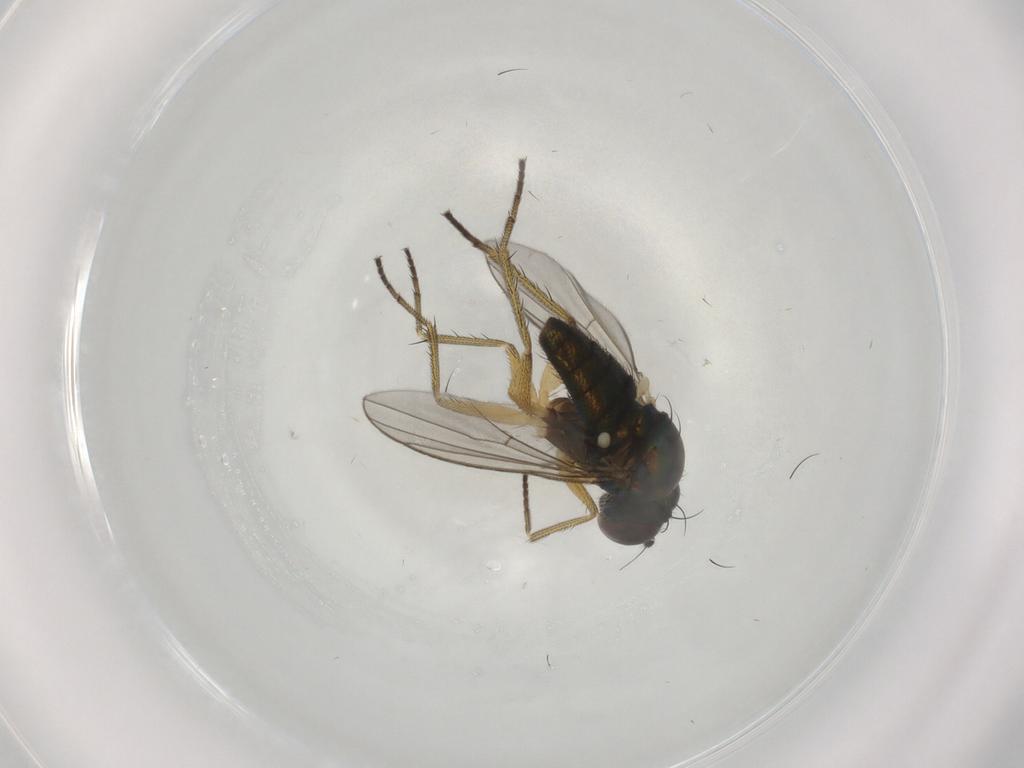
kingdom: Animalia
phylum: Arthropoda
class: Insecta
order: Diptera
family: Dolichopodidae
